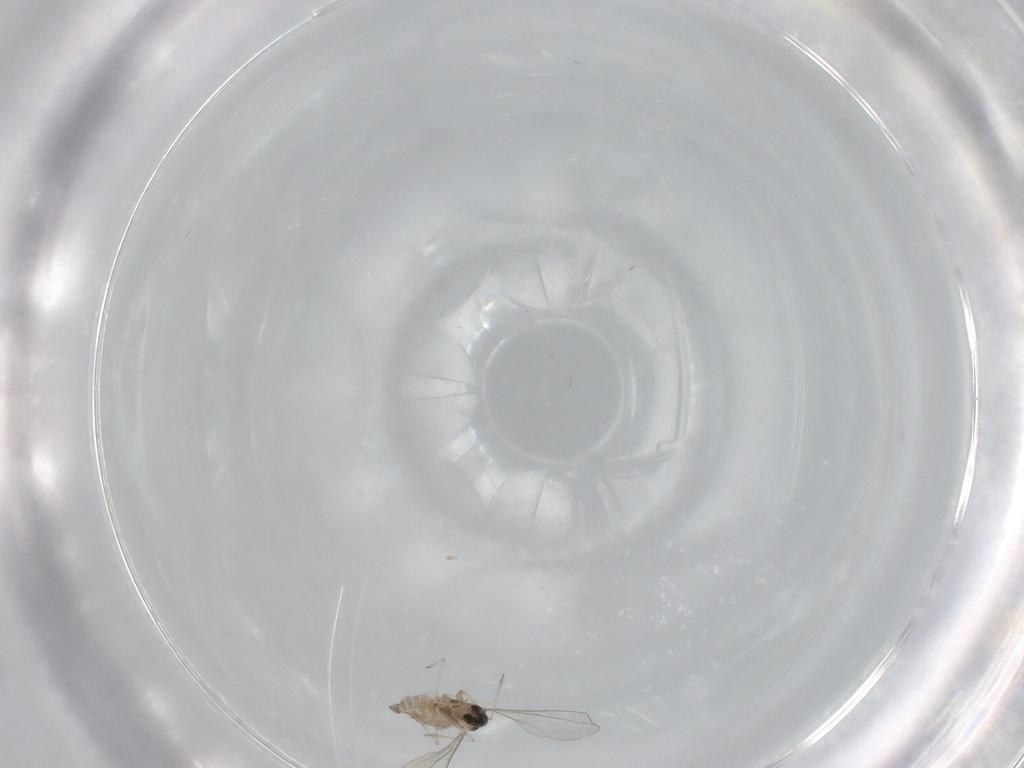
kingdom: Animalia
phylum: Arthropoda
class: Insecta
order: Diptera
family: Cecidomyiidae
